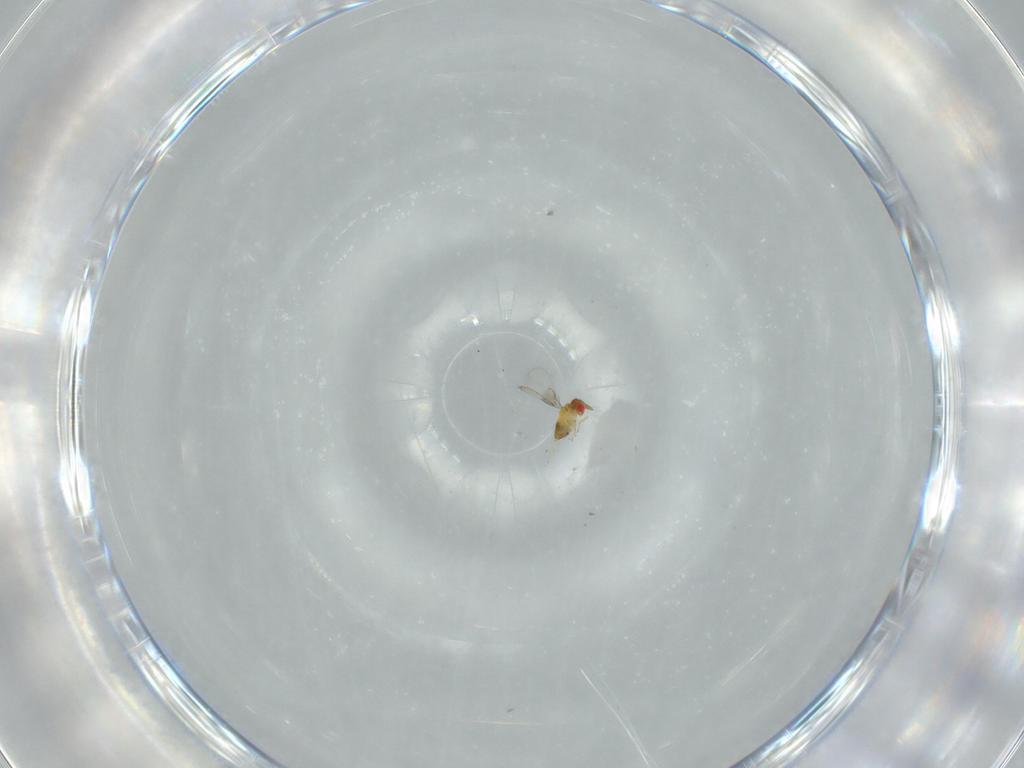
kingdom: Animalia
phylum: Arthropoda
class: Insecta
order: Hymenoptera
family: Trichogrammatidae
